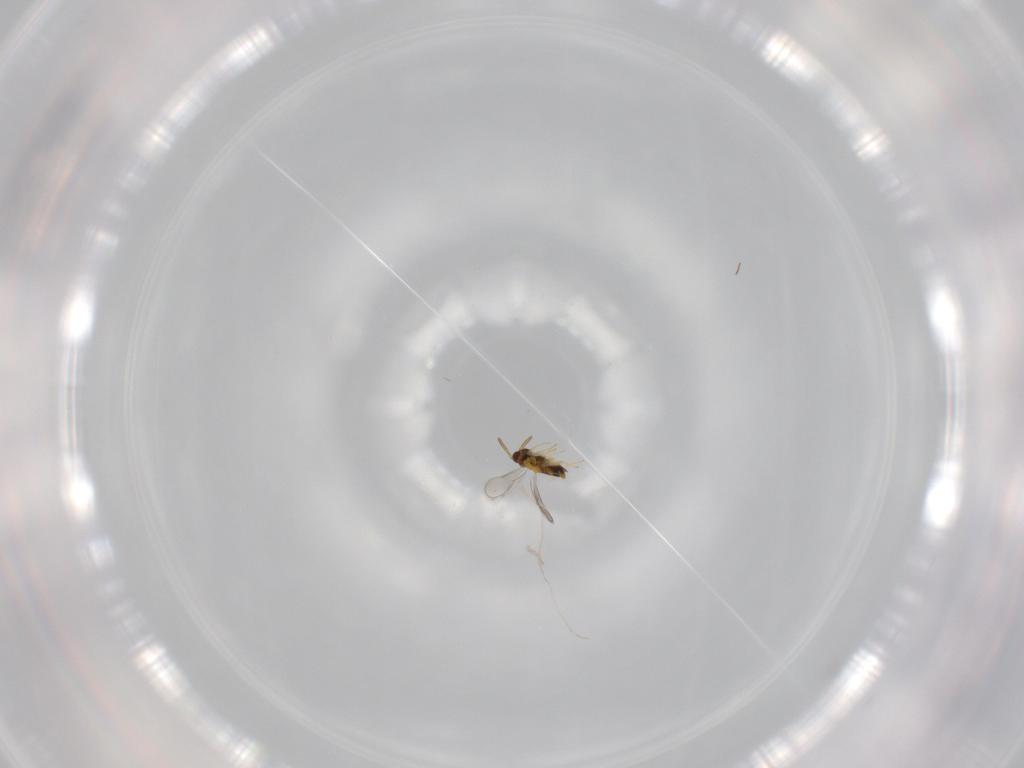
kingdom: Animalia
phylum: Arthropoda
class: Insecta
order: Hymenoptera
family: Aphelinidae
